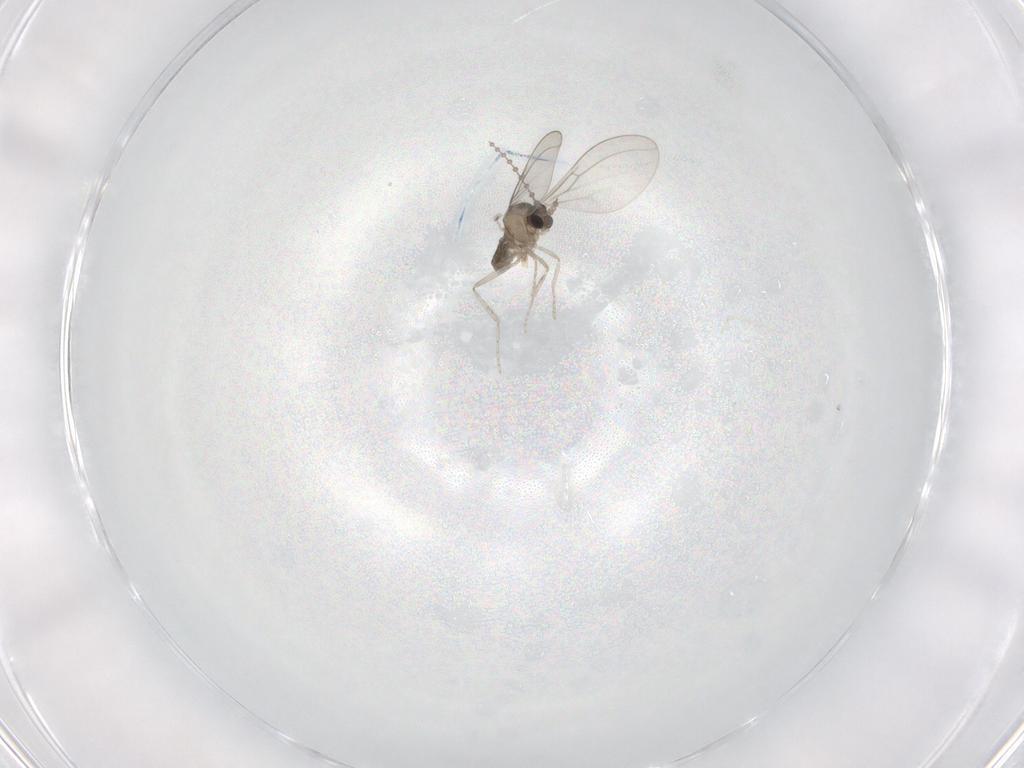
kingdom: Animalia
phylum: Arthropoda
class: Insecta
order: Diptera
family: Cecidomyiidae
